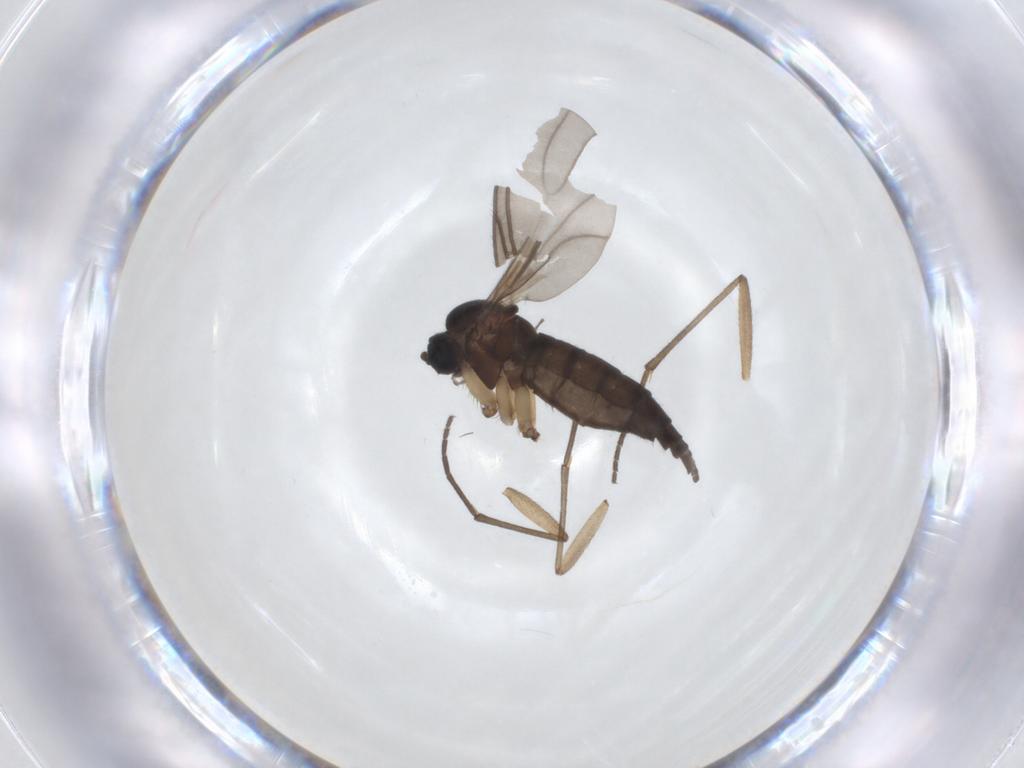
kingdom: Animalia
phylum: Arthropoda
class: Insecta
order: Diptera
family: Sciaridae
